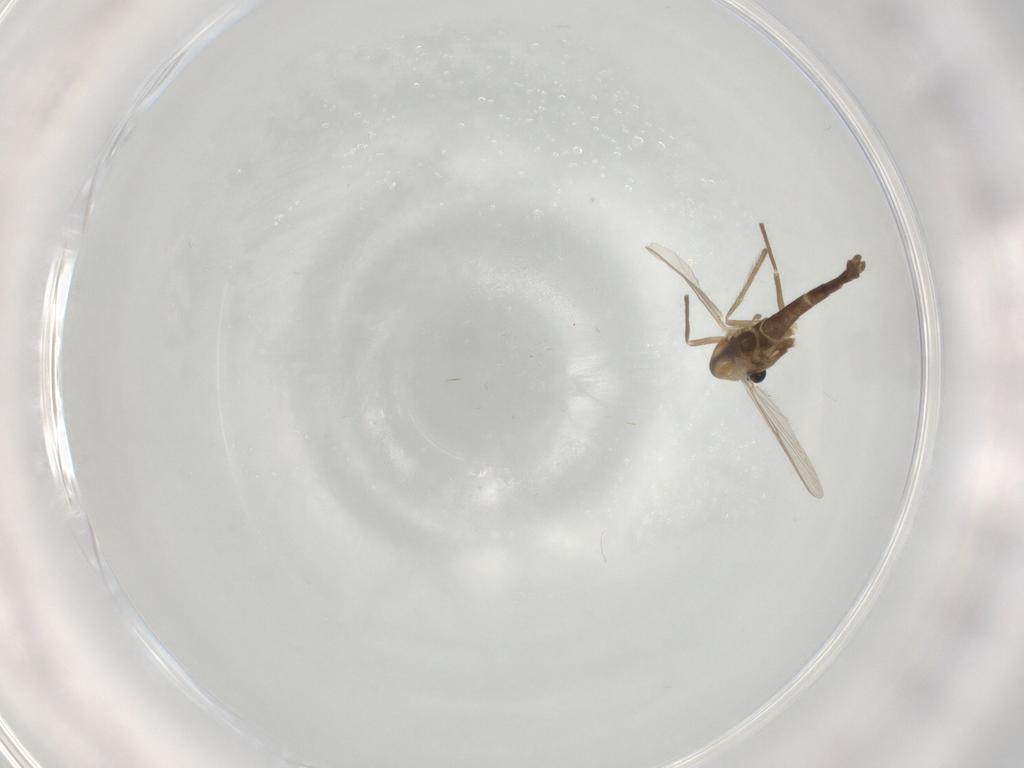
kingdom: Animalia
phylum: Arthropoda
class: Insecta
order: Diptera
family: Chironomidae
